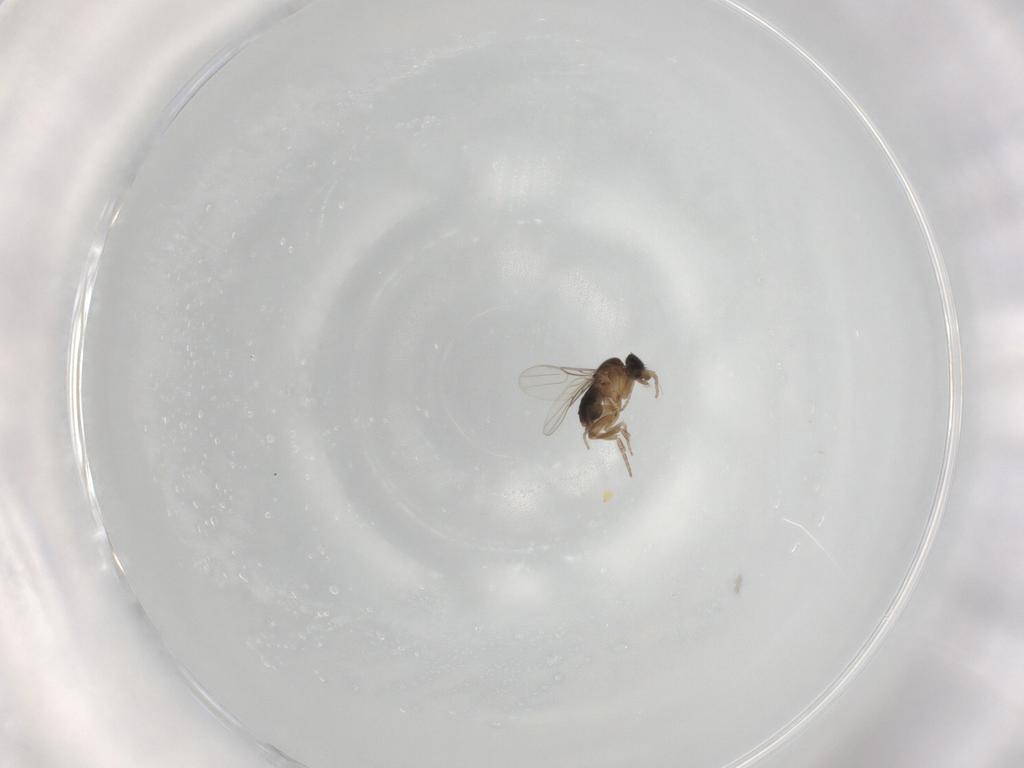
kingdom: Animalia
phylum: Arthropoda
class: Insecta
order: Diptera
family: Phoridae
